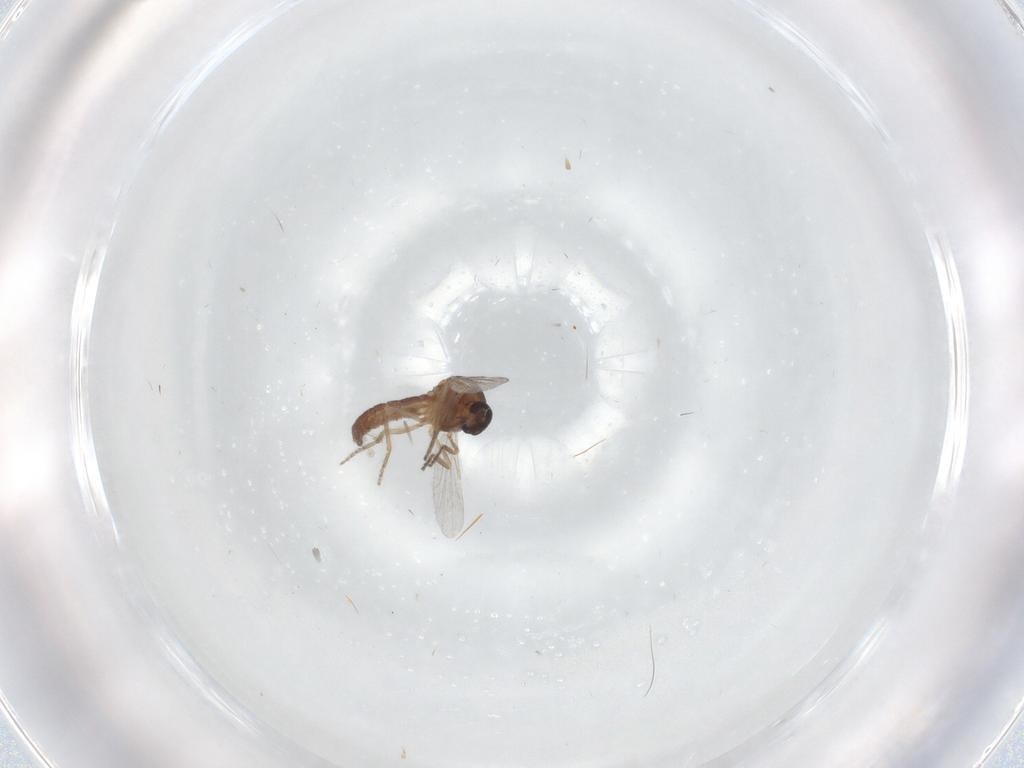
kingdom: Animalia
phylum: Arthropoda
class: Insecta
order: Diptera
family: Ceratopogonidae
